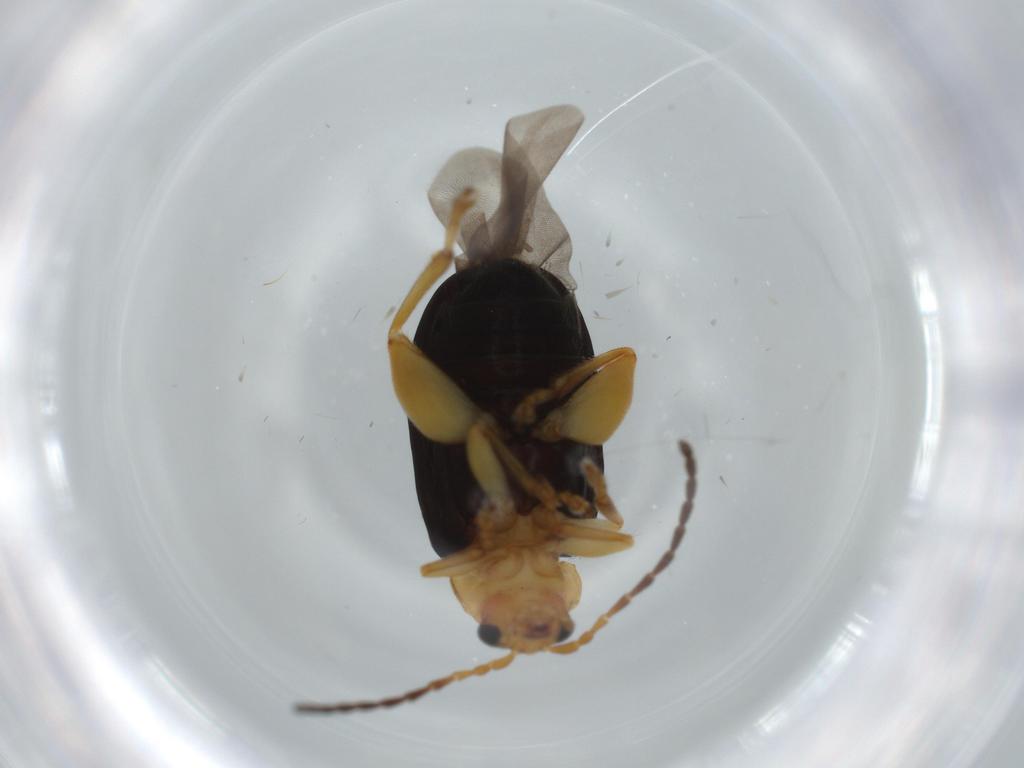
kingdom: Animalia
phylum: Arthropoda
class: Insecta
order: Coleoptera
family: Chrysomelidae
